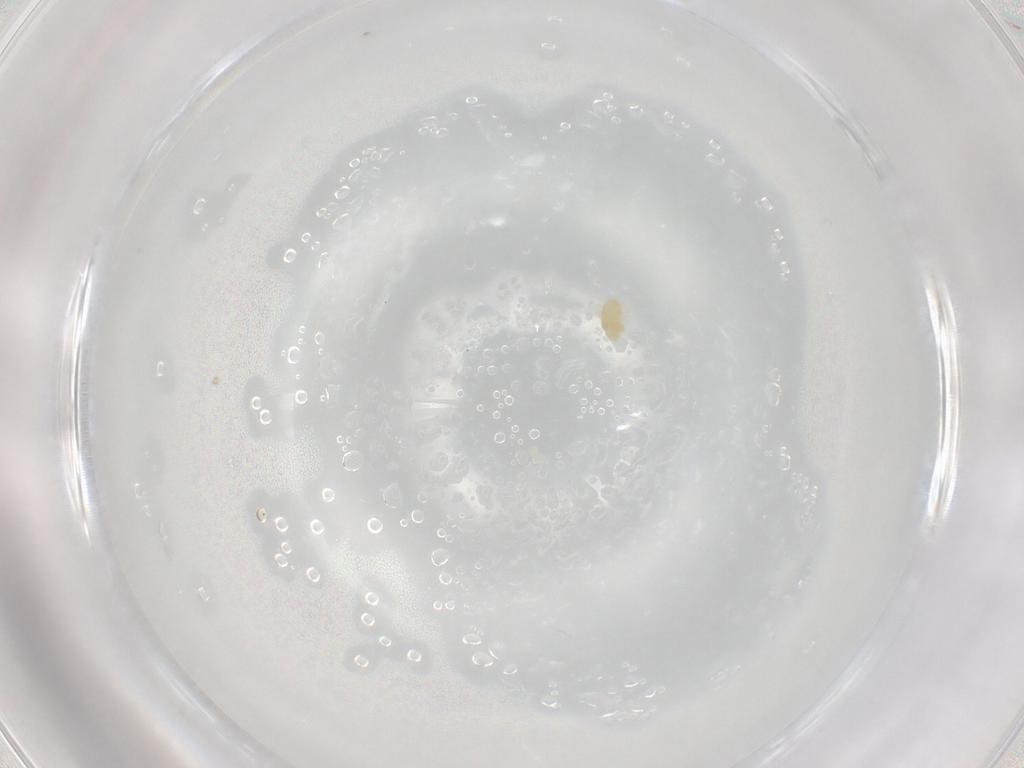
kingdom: Animalia
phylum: Arthropoda
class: Arachnida
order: Trombidiformes
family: Eupodidae
